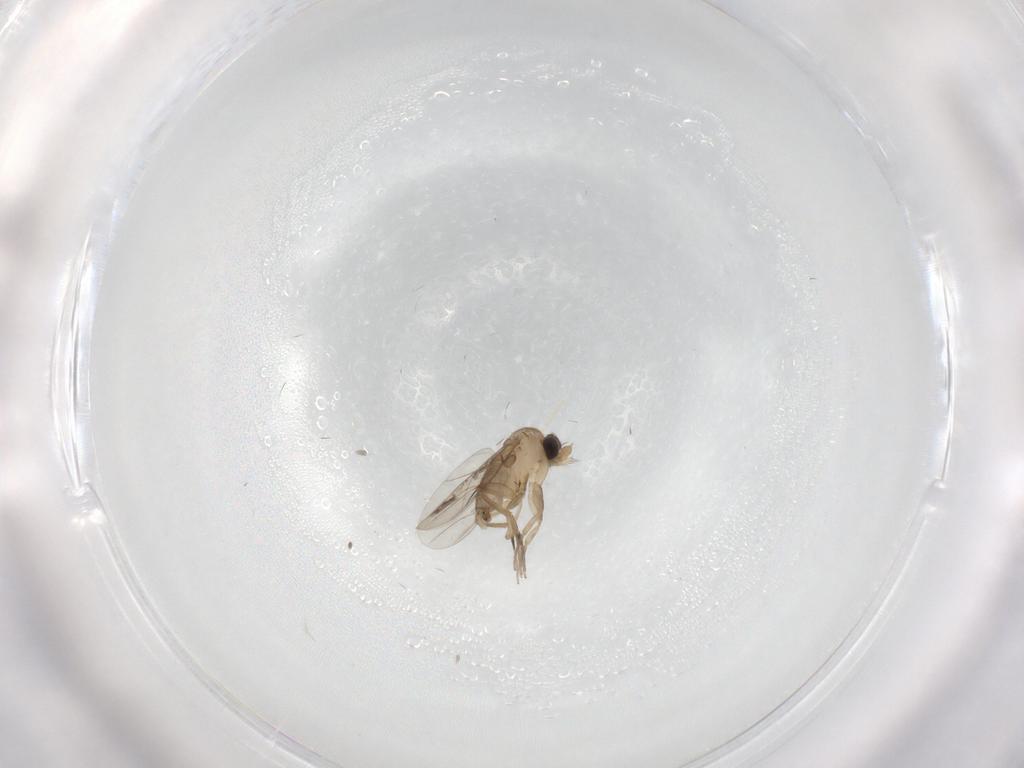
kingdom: Animalia
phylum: Arthropoda
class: Insecta
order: Diptera
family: Phoridae
